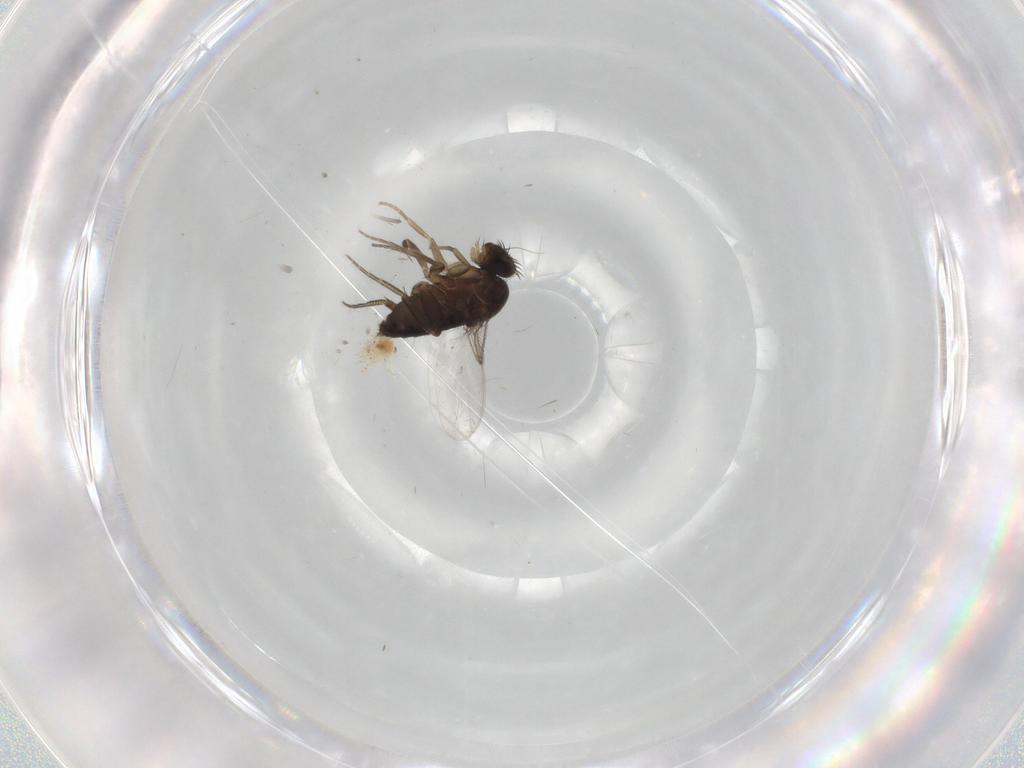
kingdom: Animalia
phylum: Arthropoda
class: Insecta
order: Diptera
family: Phoridae
